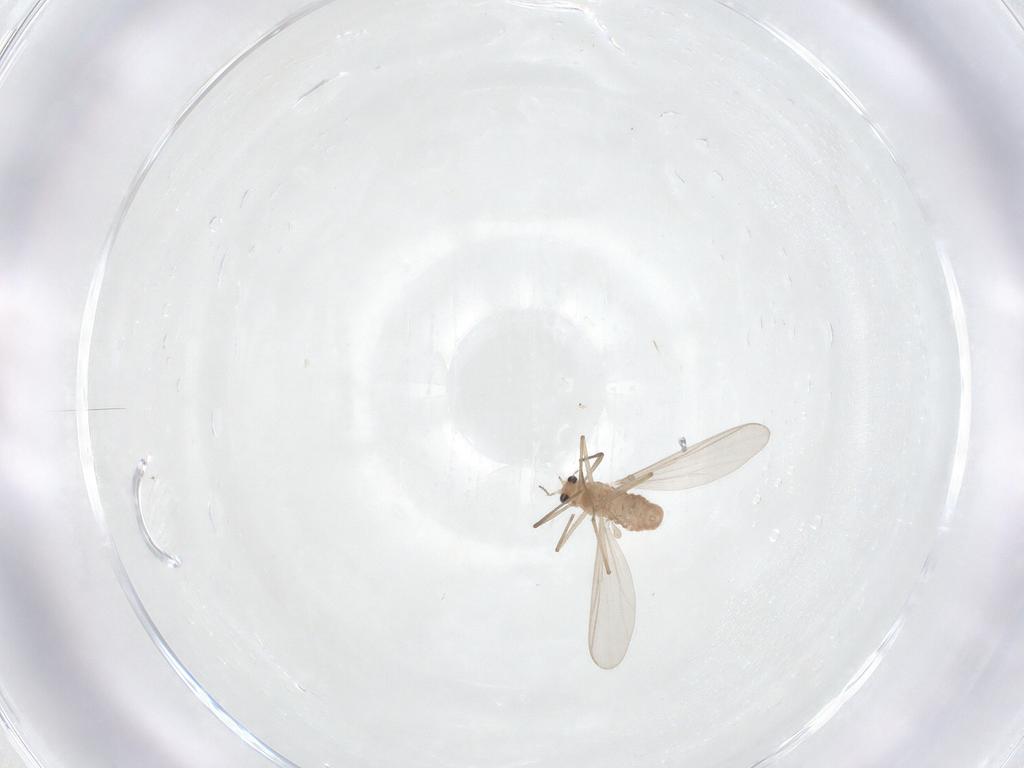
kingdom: Animalia
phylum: Arthropoda
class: Insecta
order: Diptera
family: Chironomidae
